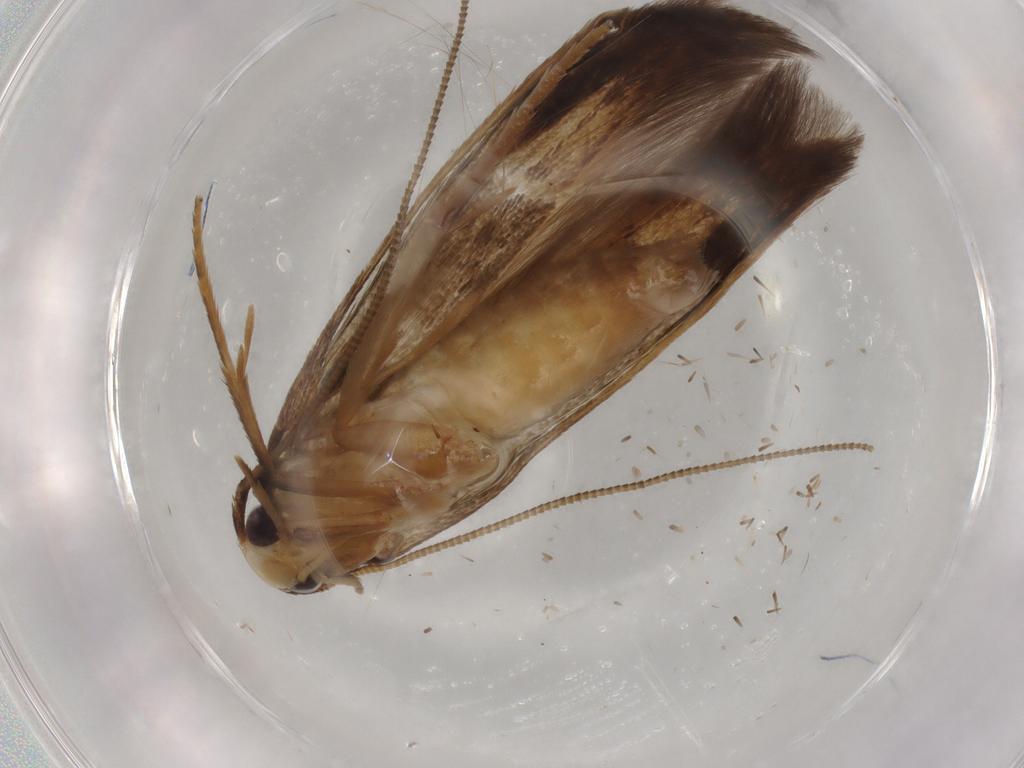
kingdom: Animalia
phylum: Arthropoda
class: Insecta
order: Lepidoptera
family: Tineidae
